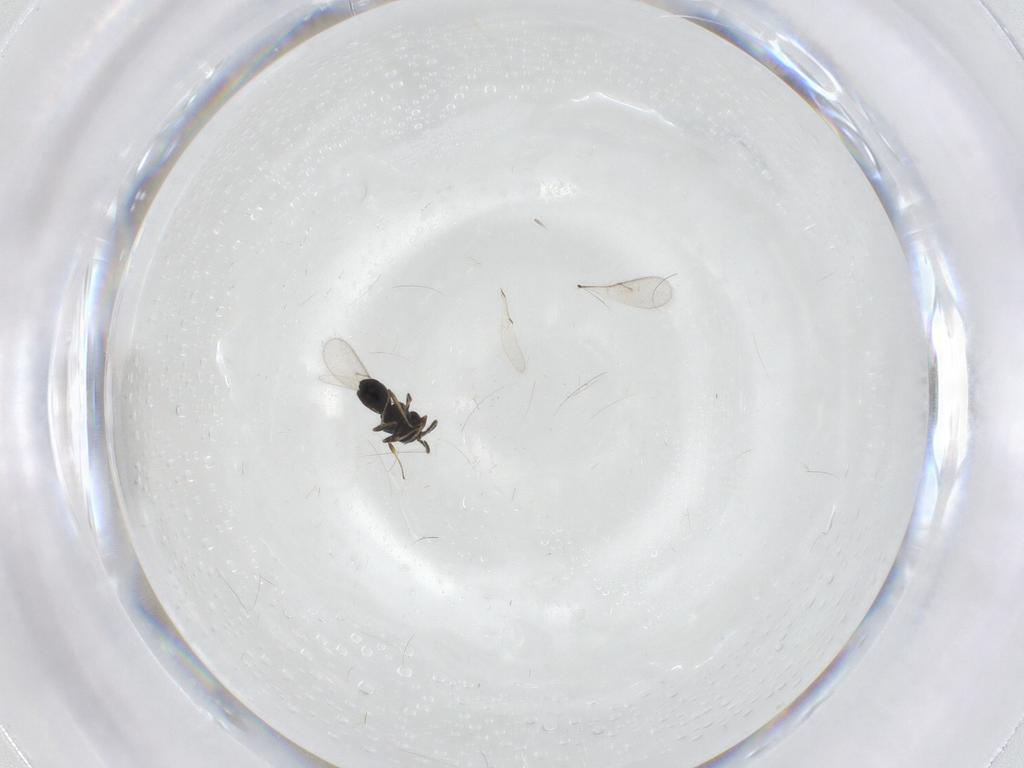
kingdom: Animalia
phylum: Arthropoda
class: Insecta
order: Hymenoptera
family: Scelionidae
